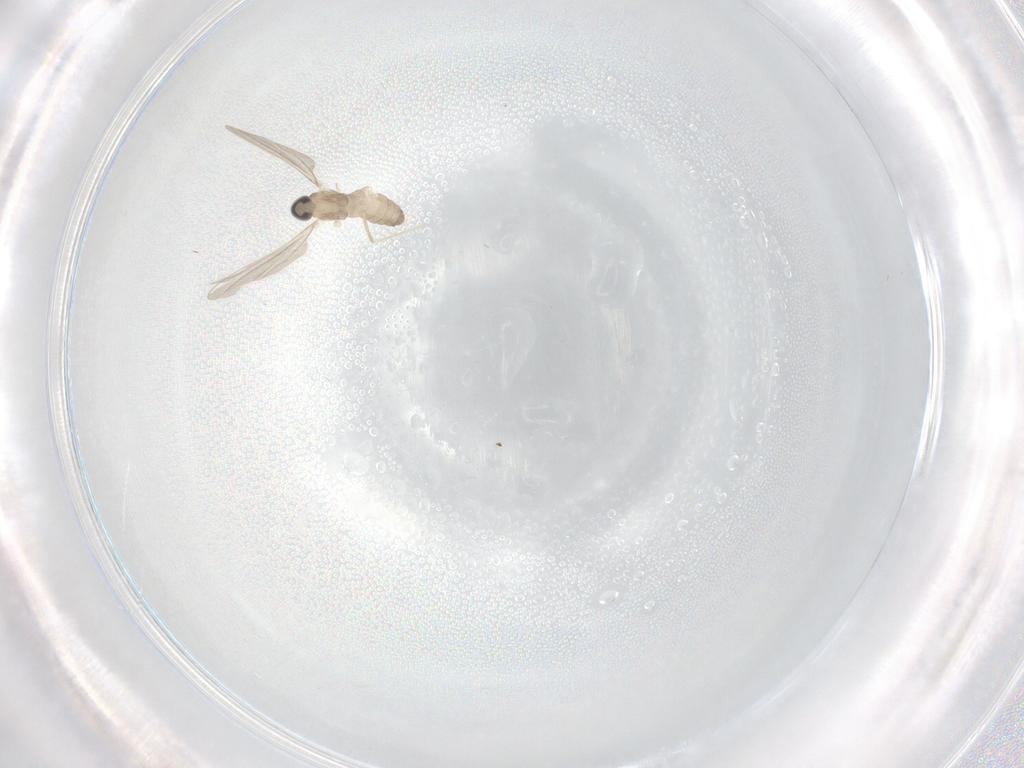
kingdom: Animalia
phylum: Arthropoda
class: Insecta
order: Diptera
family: Cecidomyiidae
